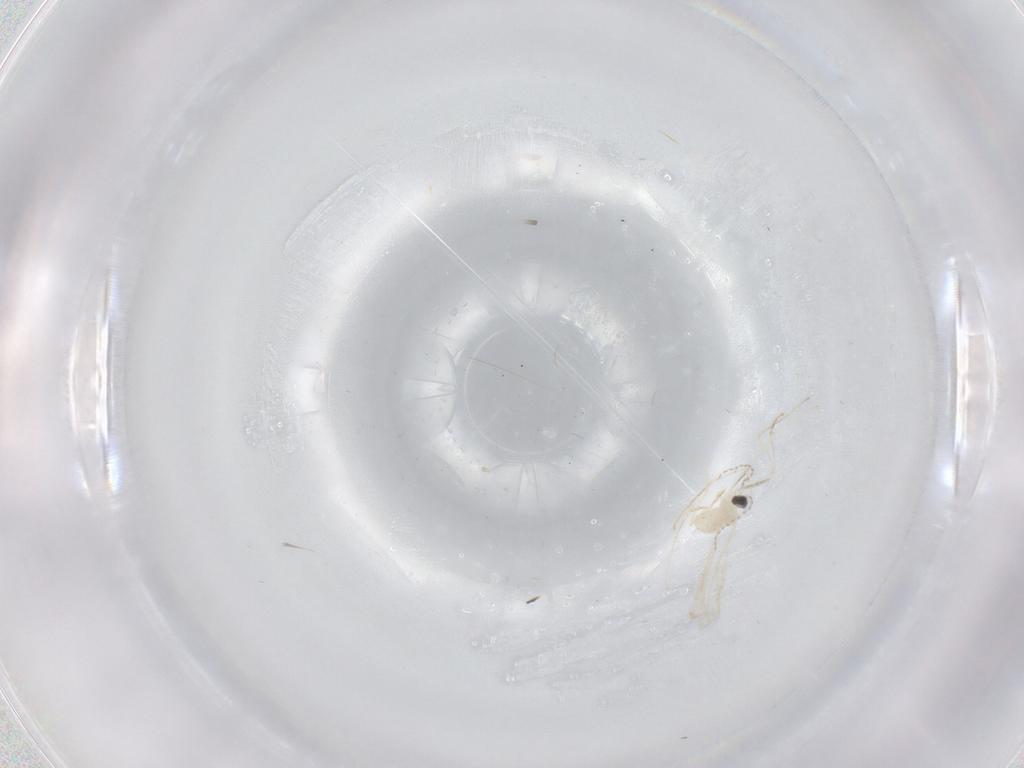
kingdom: Animalia
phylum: Arthropoda
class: Insecta
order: Diptera
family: Cecidomyiidae
